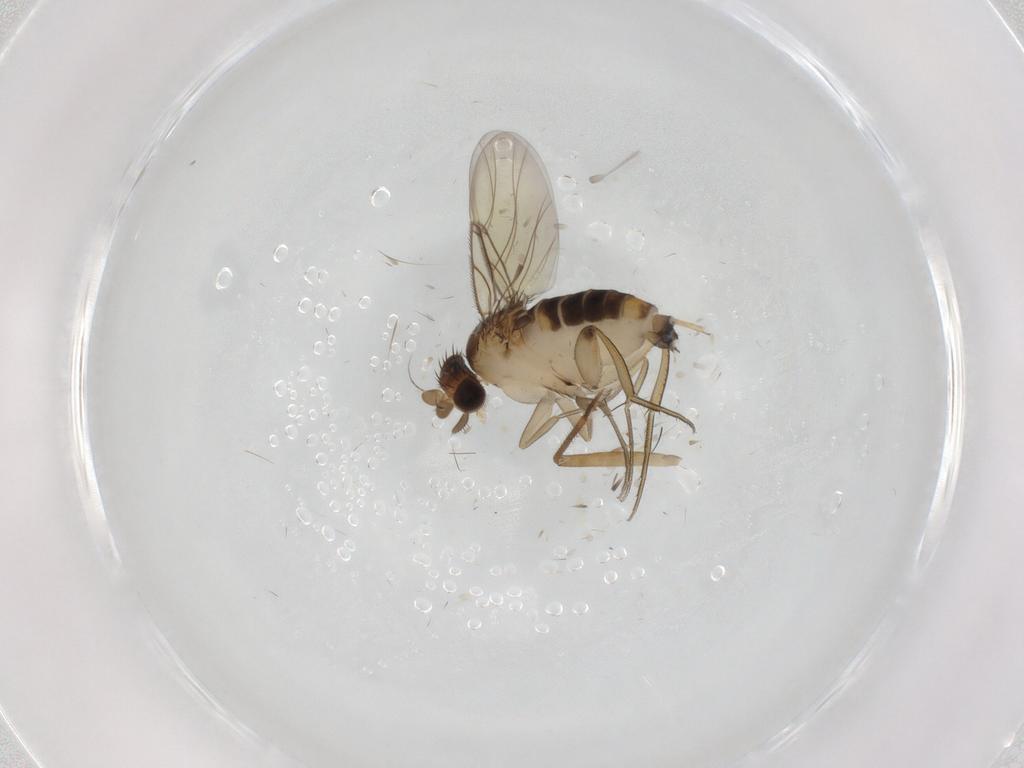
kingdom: Animalia
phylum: Arthropoda
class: Insecta
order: Diptera
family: Phoridae
